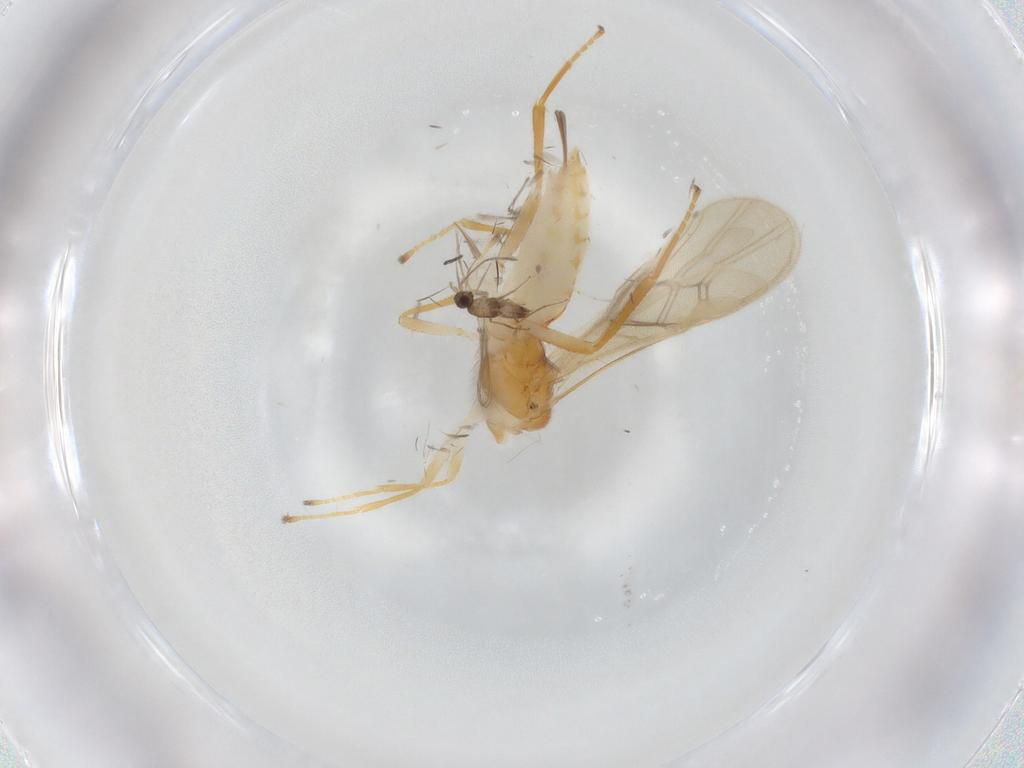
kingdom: Animalia
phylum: Arthropoda
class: Insecta
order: Hymenoptera
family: Braconidae
